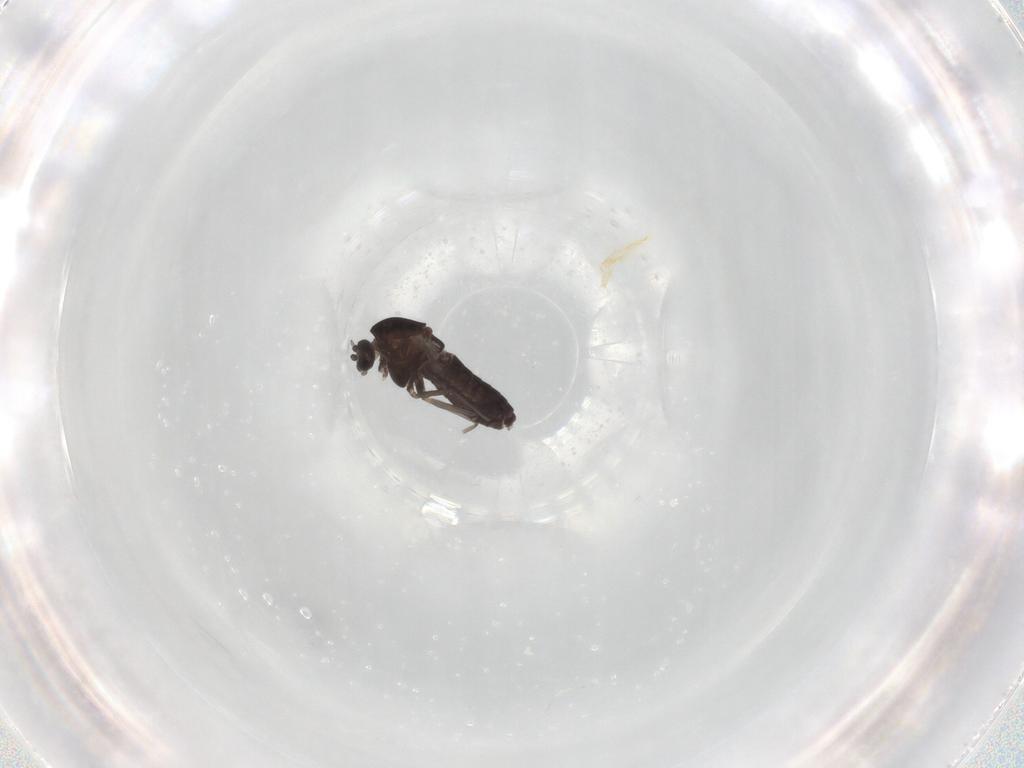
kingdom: Animalia
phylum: Arthropoda
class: Insecta
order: Diptera
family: Chironomidae
